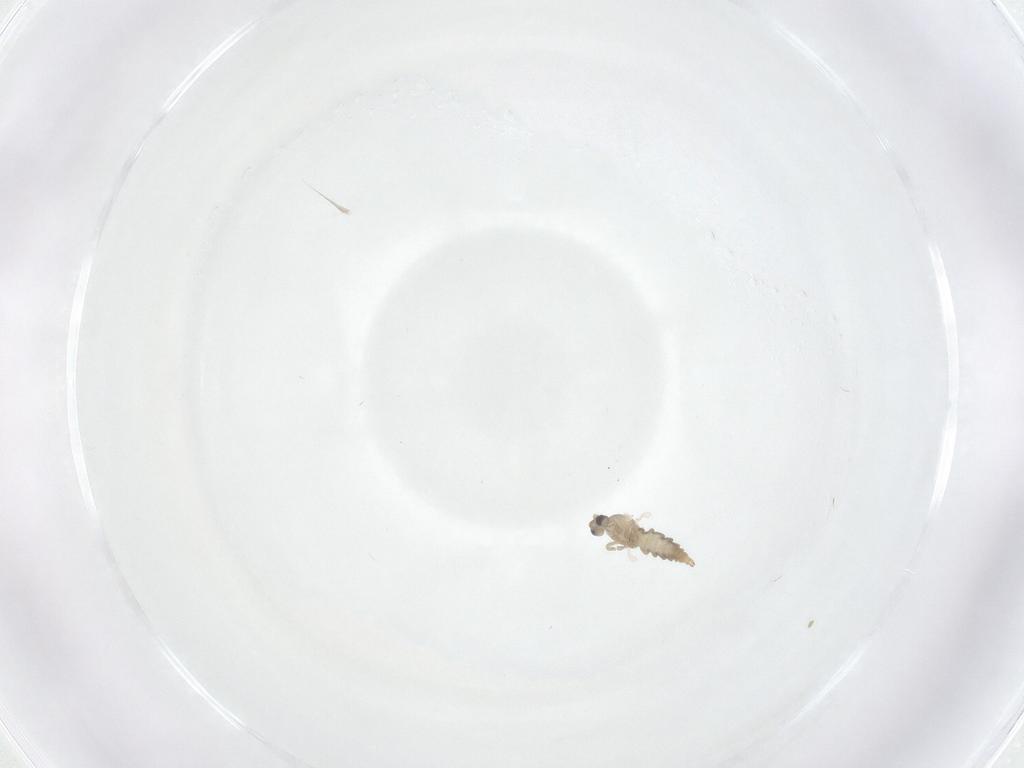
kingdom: Animalia
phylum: Arthropoda
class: Insecta
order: Diptera
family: Cecidomyiidae
